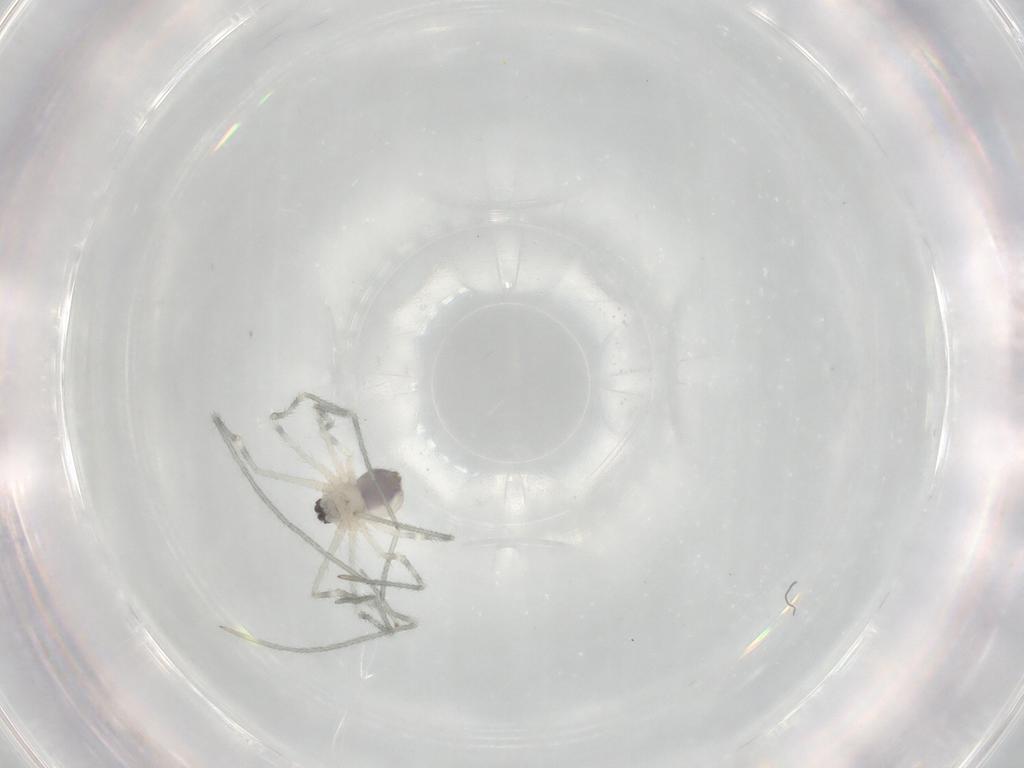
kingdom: Animalia
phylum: Arthropoda
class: Arachnida
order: Araneae
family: Pholcidae
